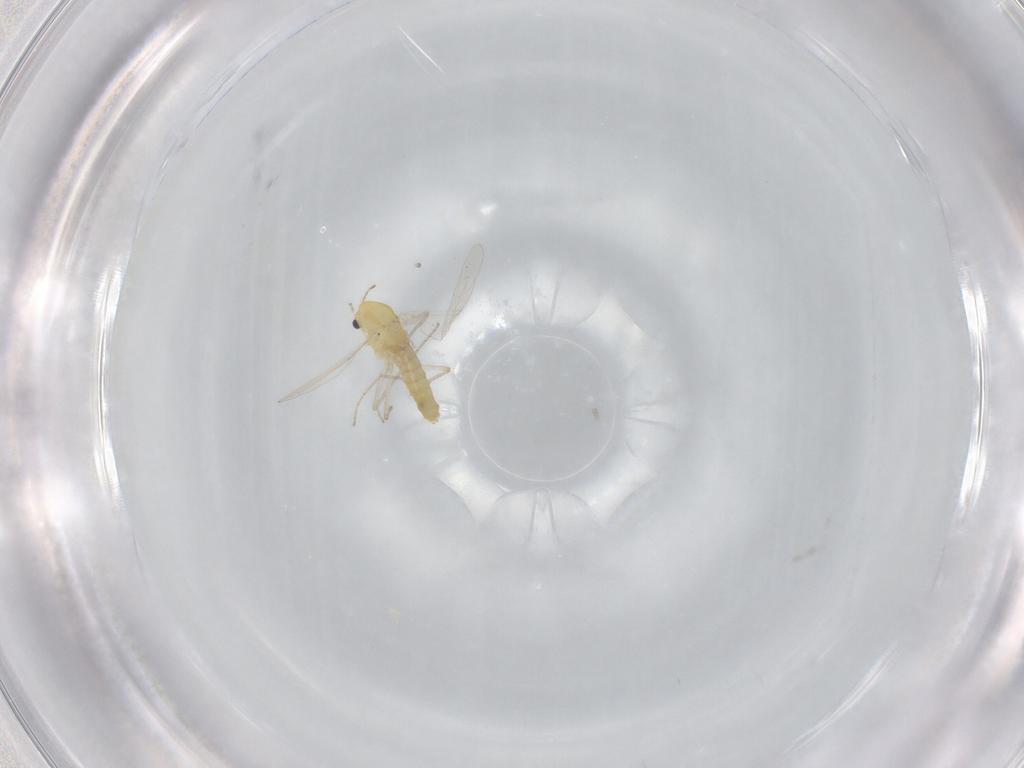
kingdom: Animalia
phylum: Arthropoda
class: Insecta
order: Diptera
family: Chironomidae
